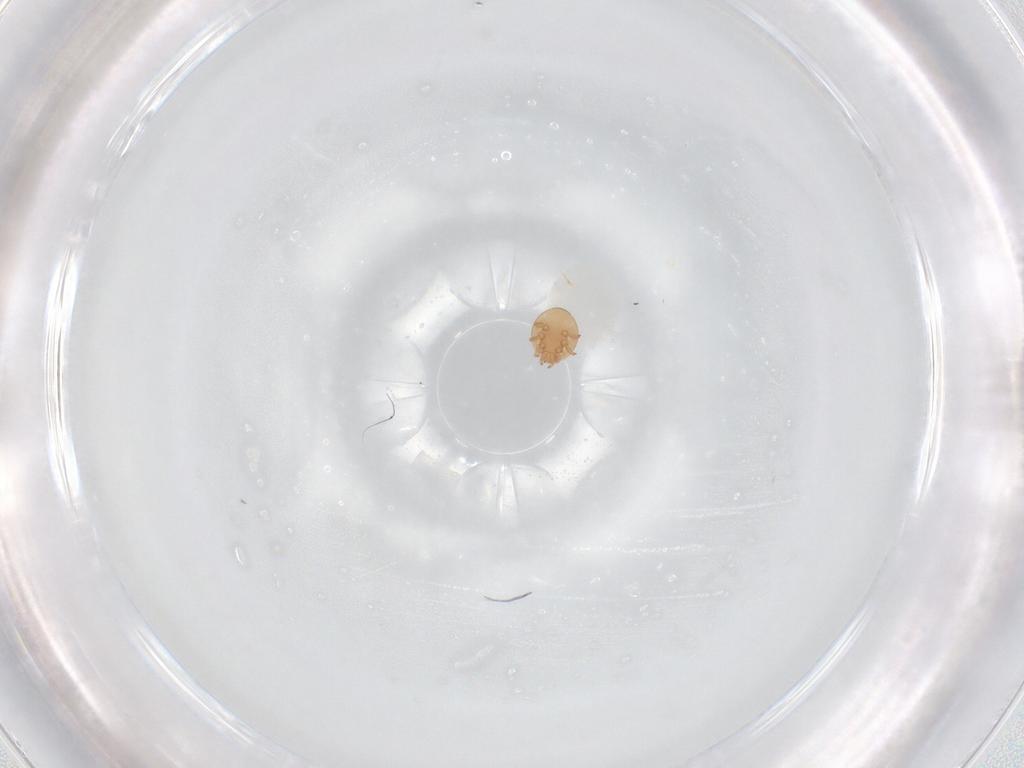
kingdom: Animalia
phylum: Arthropoda
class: Arachnida
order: Mesostigmata
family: Trematuridae
